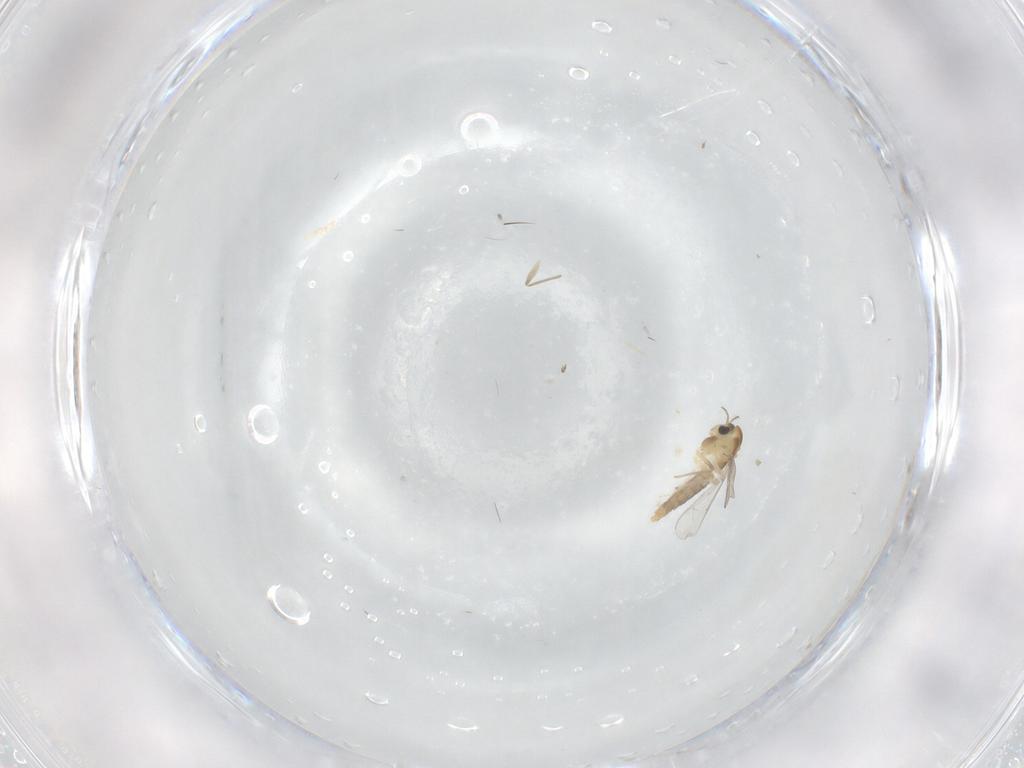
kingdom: Animalia
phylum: Arthropoda
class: Insecta
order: Diptera
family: Chironomidae
